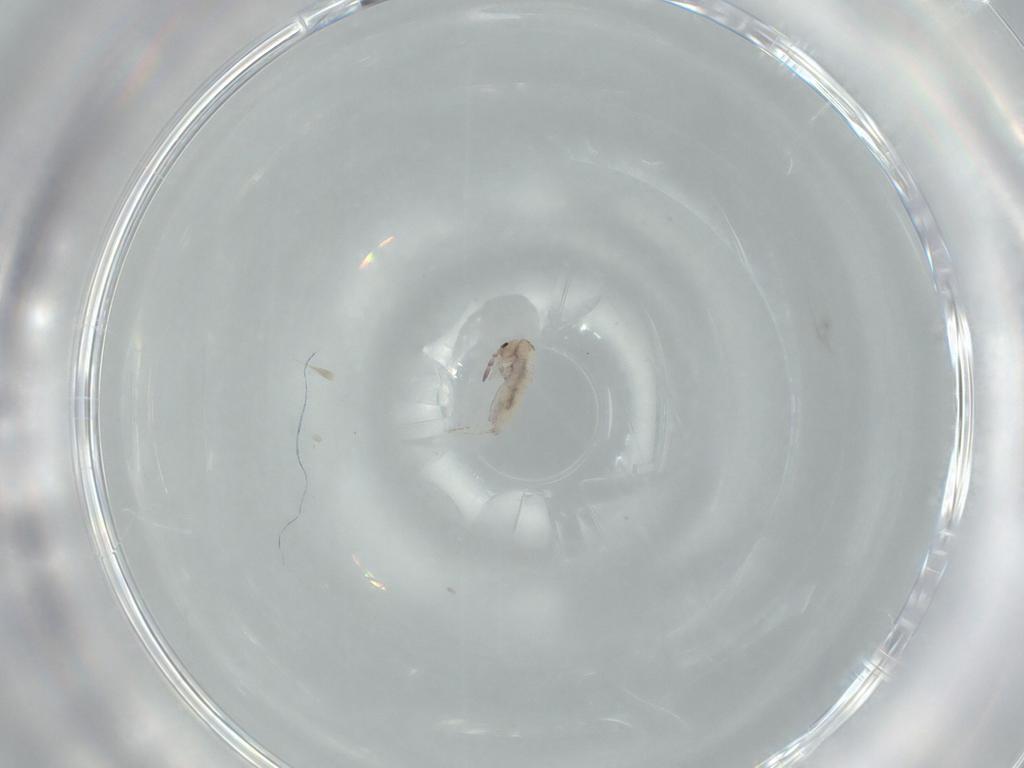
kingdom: Animalia
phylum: Arthropoda
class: Collembola
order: Entomobryomorpha
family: Entomobryidae
